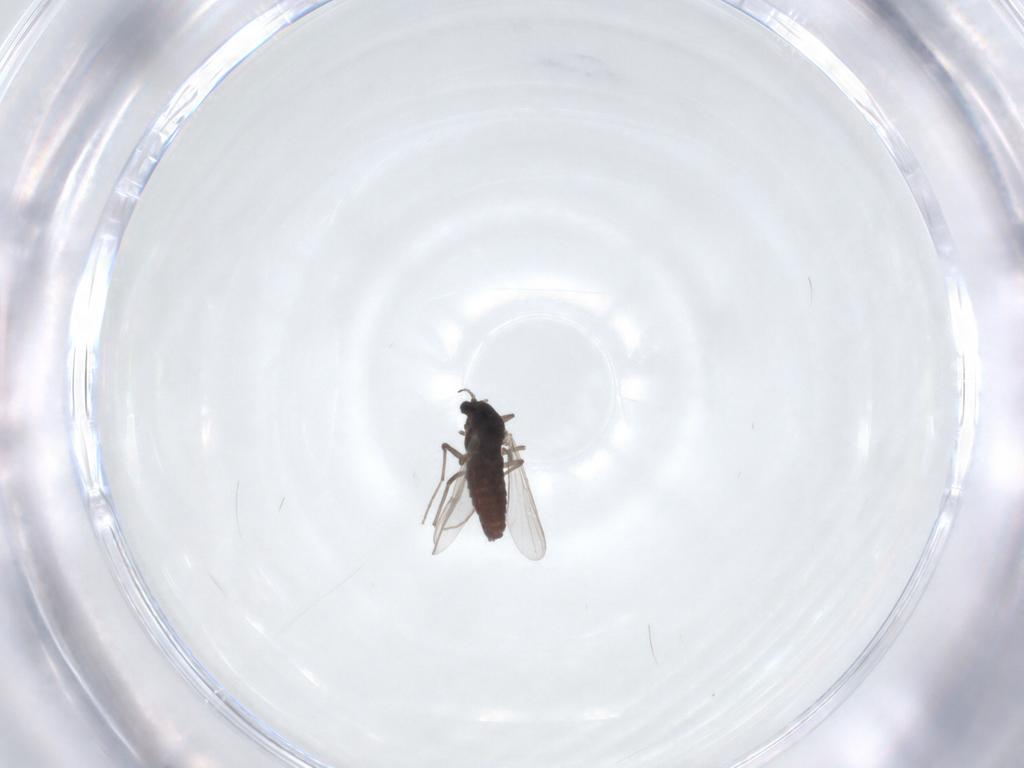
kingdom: Animalia
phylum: Arthropoda
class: Insecta
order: Diptera
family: Chironomidae
